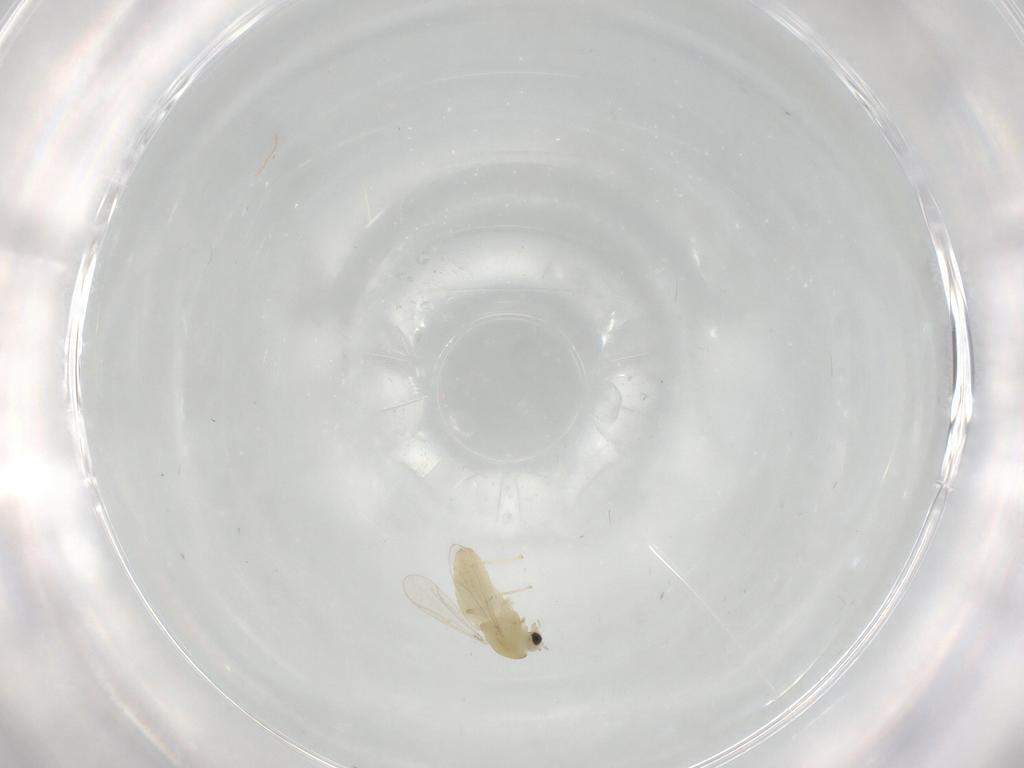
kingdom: Animalia
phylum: Arthropoda
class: Insecta
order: Diptera
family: Chironomidae
